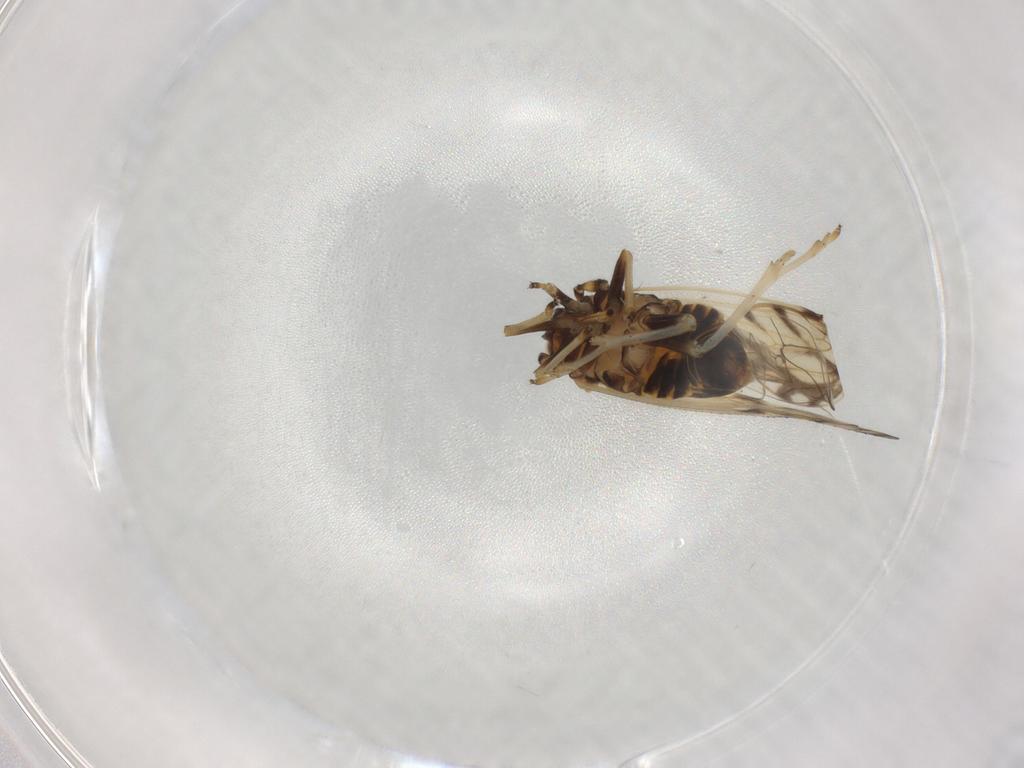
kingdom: Animalia
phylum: Arthropoda
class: Insecta
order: Hemiptera
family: Delphacidae
